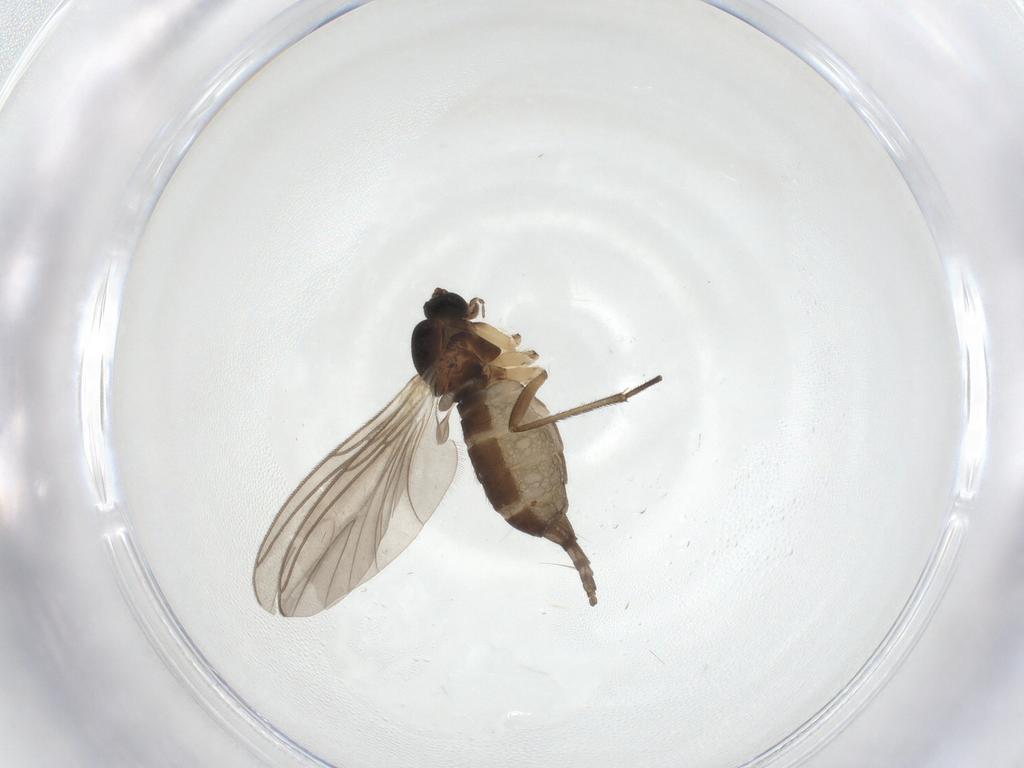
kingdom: Animalia
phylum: Arthropoda
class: Insecta
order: Diptera
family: Sciaridae
